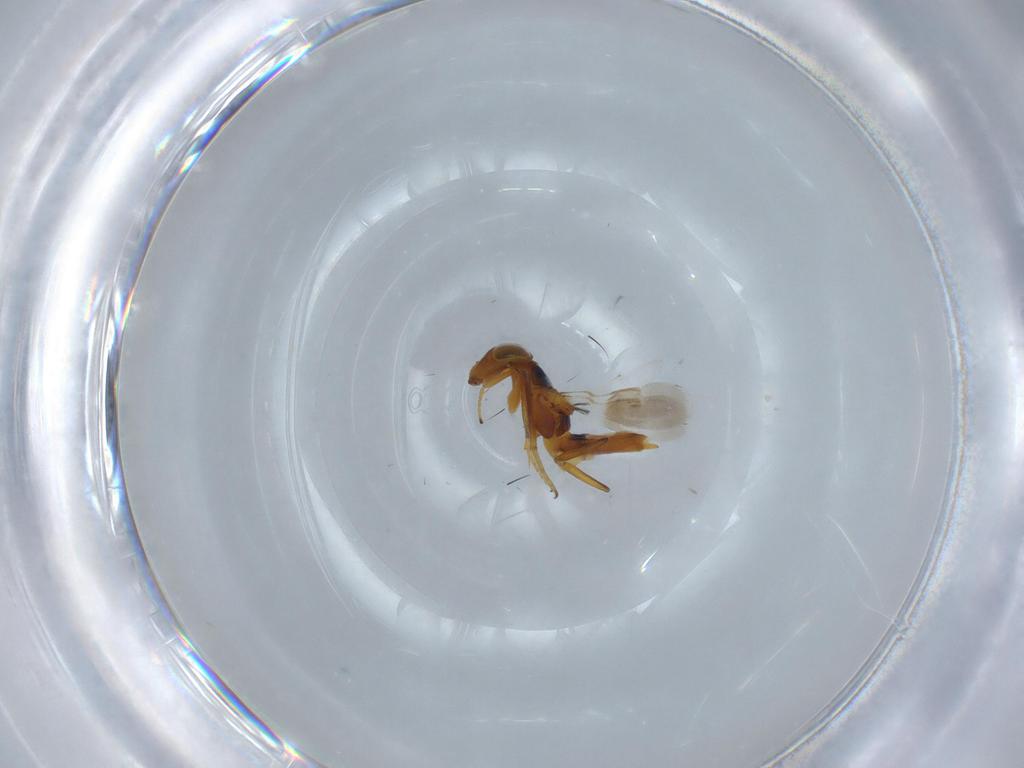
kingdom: Animalia
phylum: Arthropoda
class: Insecta
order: Hymenoptera
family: Encyrtidae
